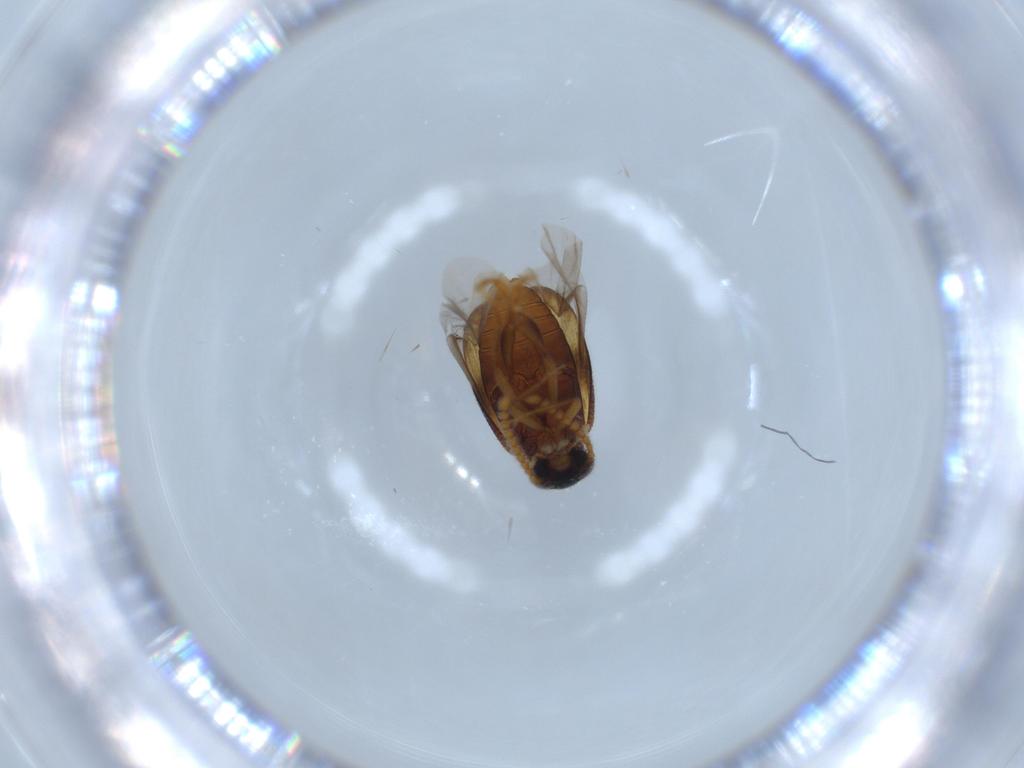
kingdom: Animalia
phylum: Arthropoda
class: Insecta
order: Coleoptera
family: Aderidae
